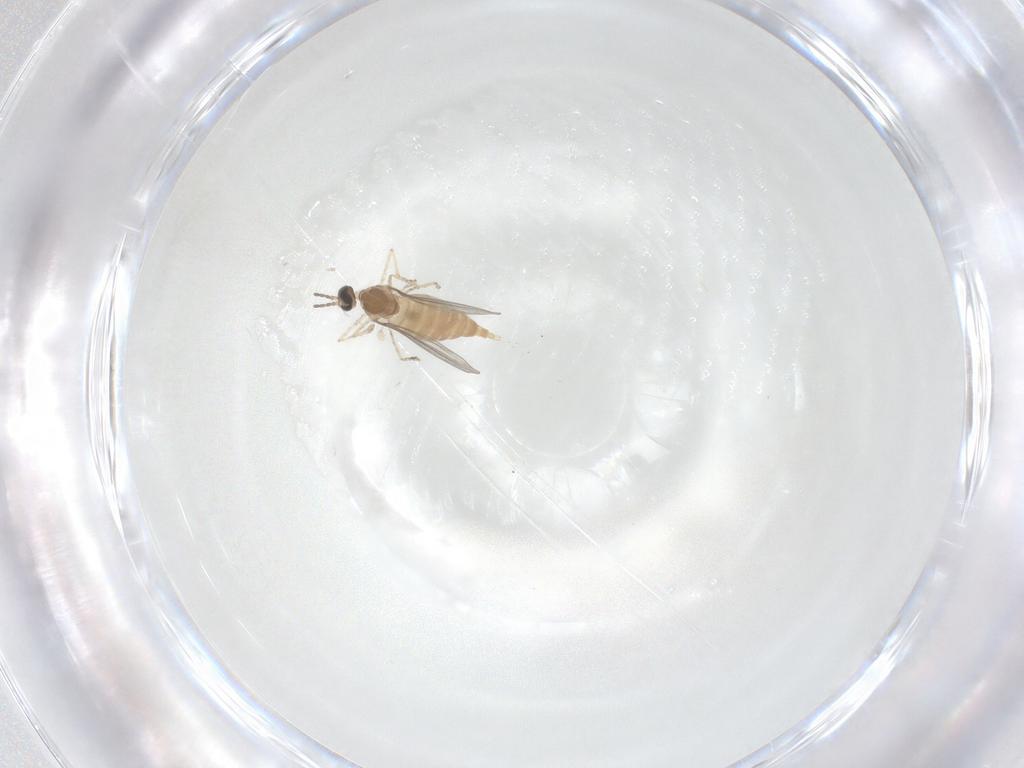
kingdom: Animalia
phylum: Arthropoda
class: Insecta
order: Diptera
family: Cecidomyiidae
